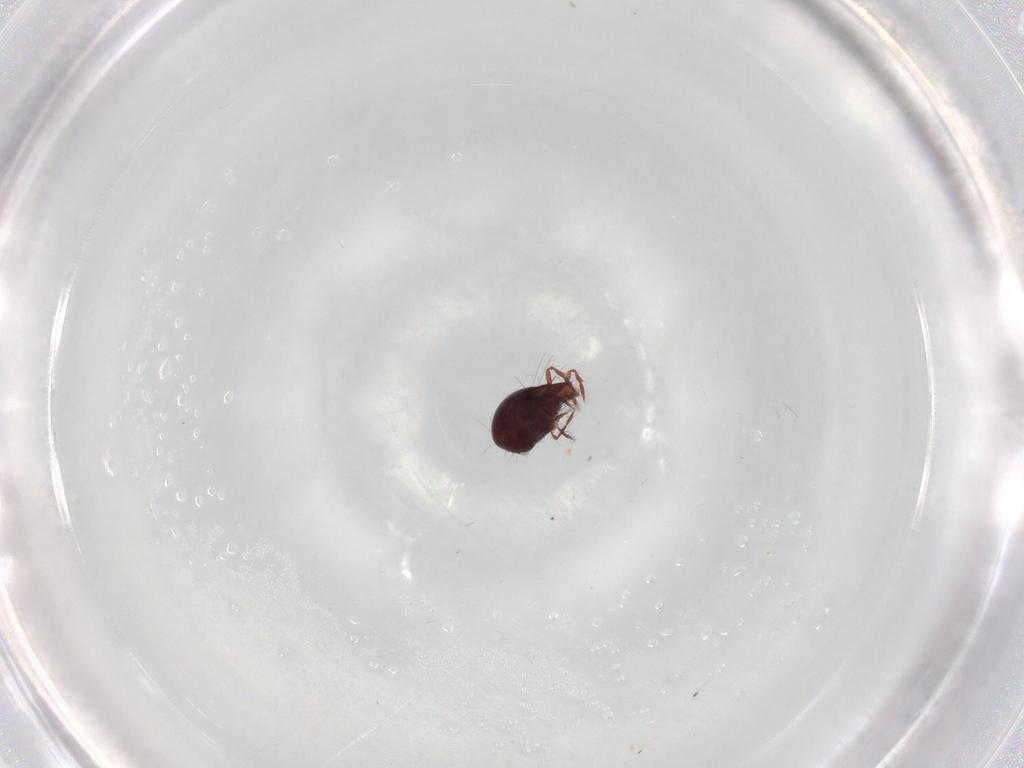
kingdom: Animalia
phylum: Arthropoda
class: Arachnida
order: Sarcoptiformes
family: Ceratoppiidae
